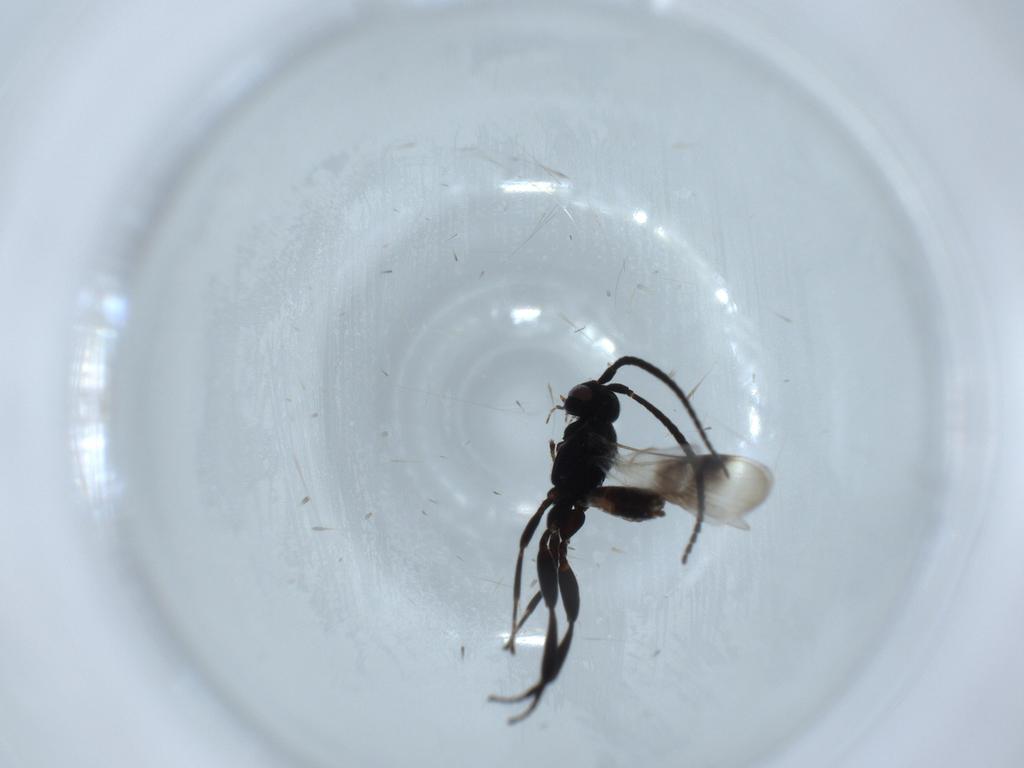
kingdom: Animalia
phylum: Arthropoda
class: Insecta
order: Hymenoptera
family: Braconidae
